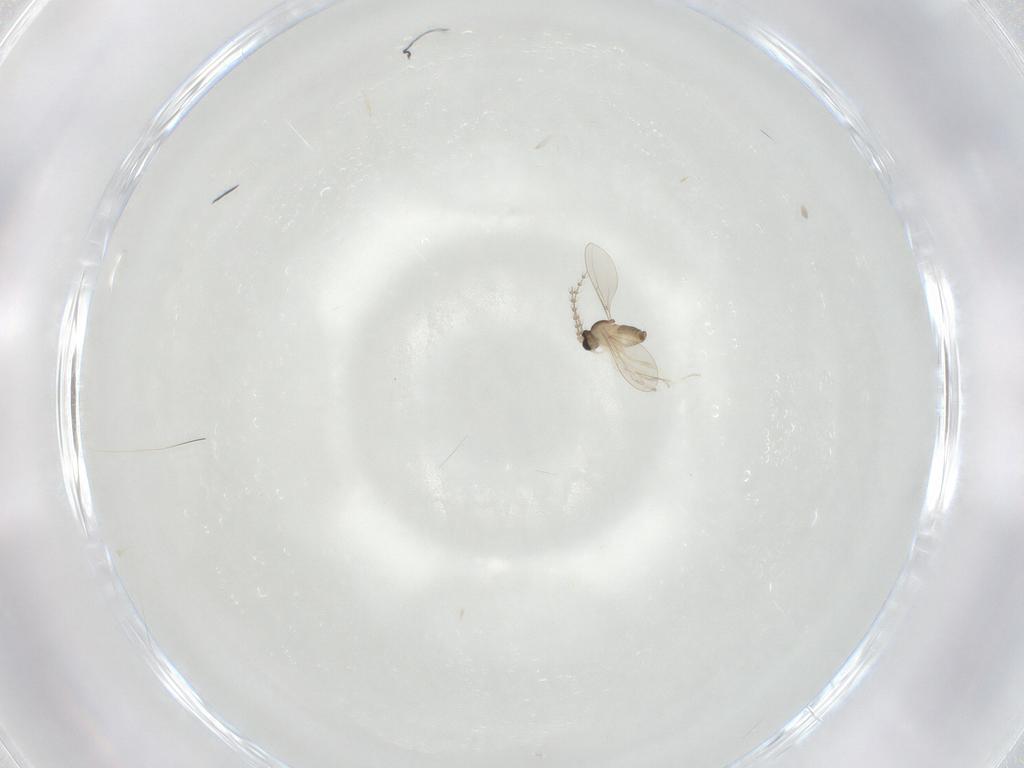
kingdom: Animalia
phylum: Arthropoda
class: Insecta
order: Diptera
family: Cecidomyiidae
